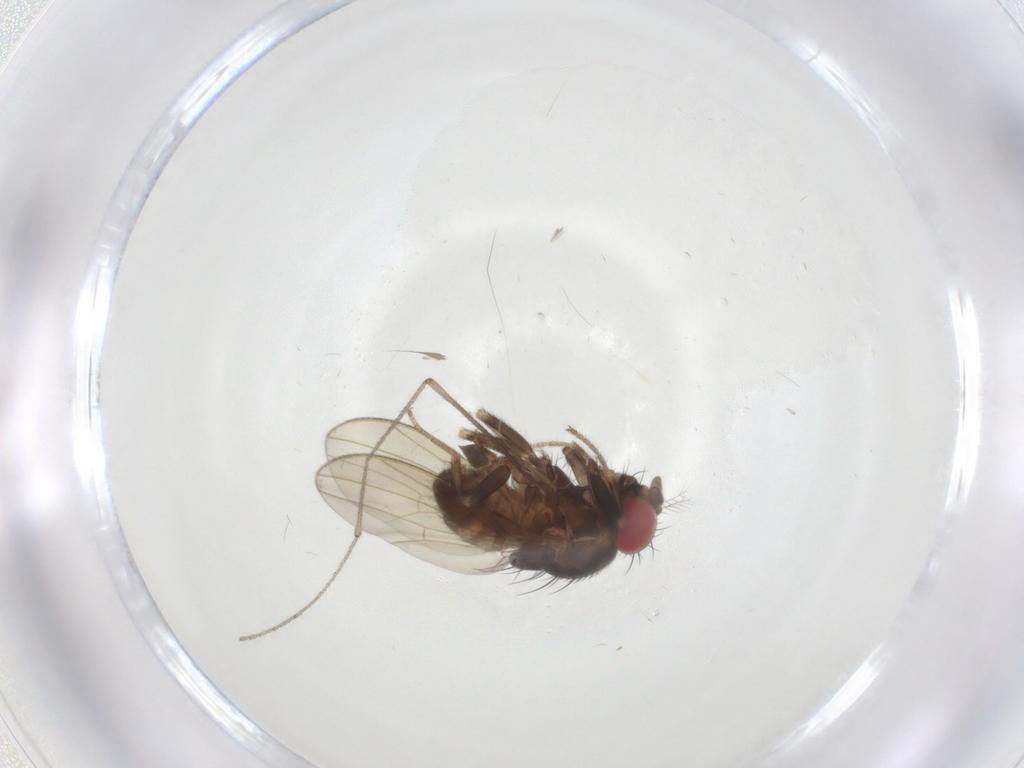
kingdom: Animalia
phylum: Arthropoda
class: Insecta
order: Diptera
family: Drosophilidae
